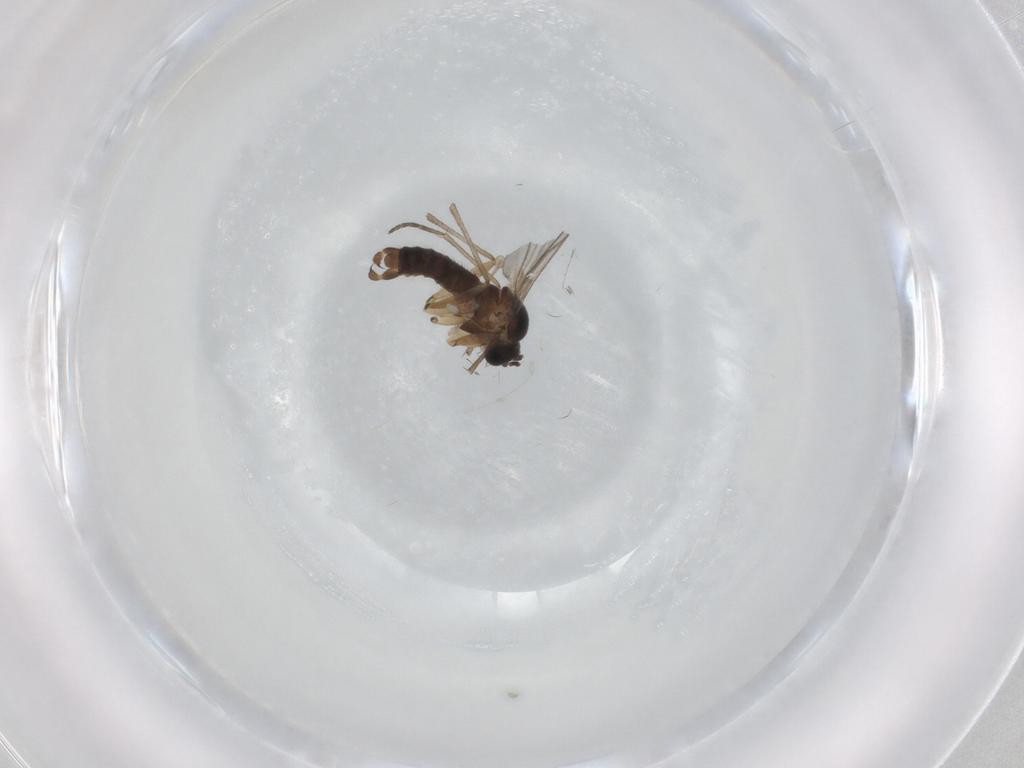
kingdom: Animalia
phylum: Arthropoda
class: Insecta
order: Diptera
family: Sciaridae
